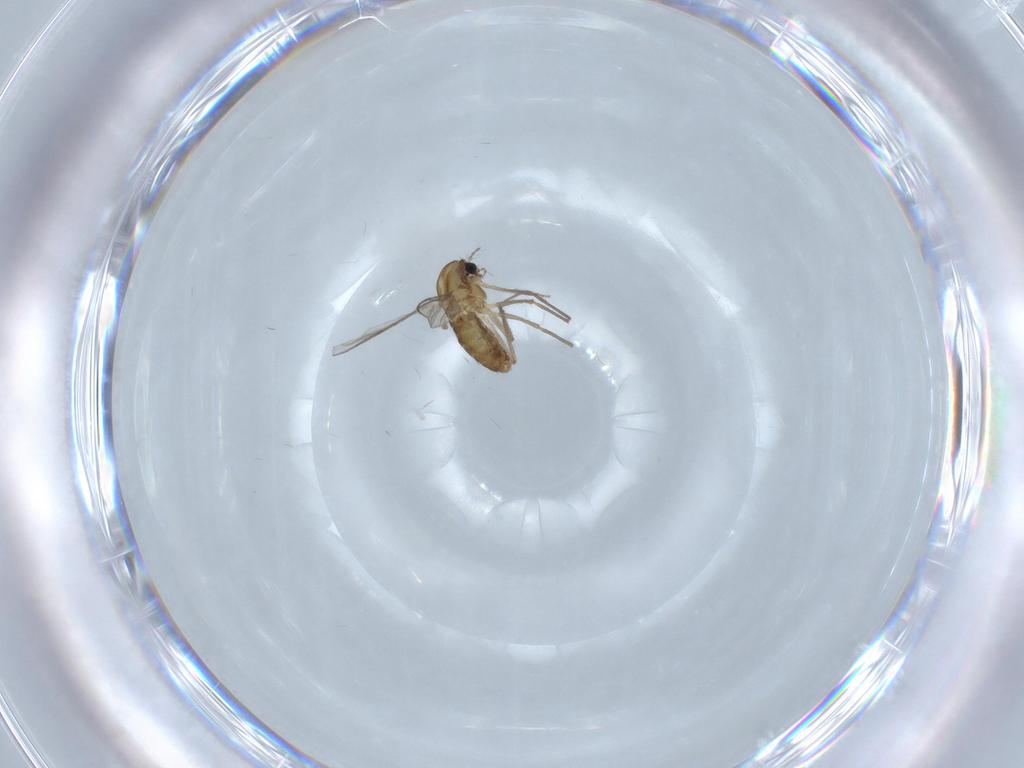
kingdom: Animalia
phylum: Arthropoda
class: Insecta
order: Diptera
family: Chironomidae
